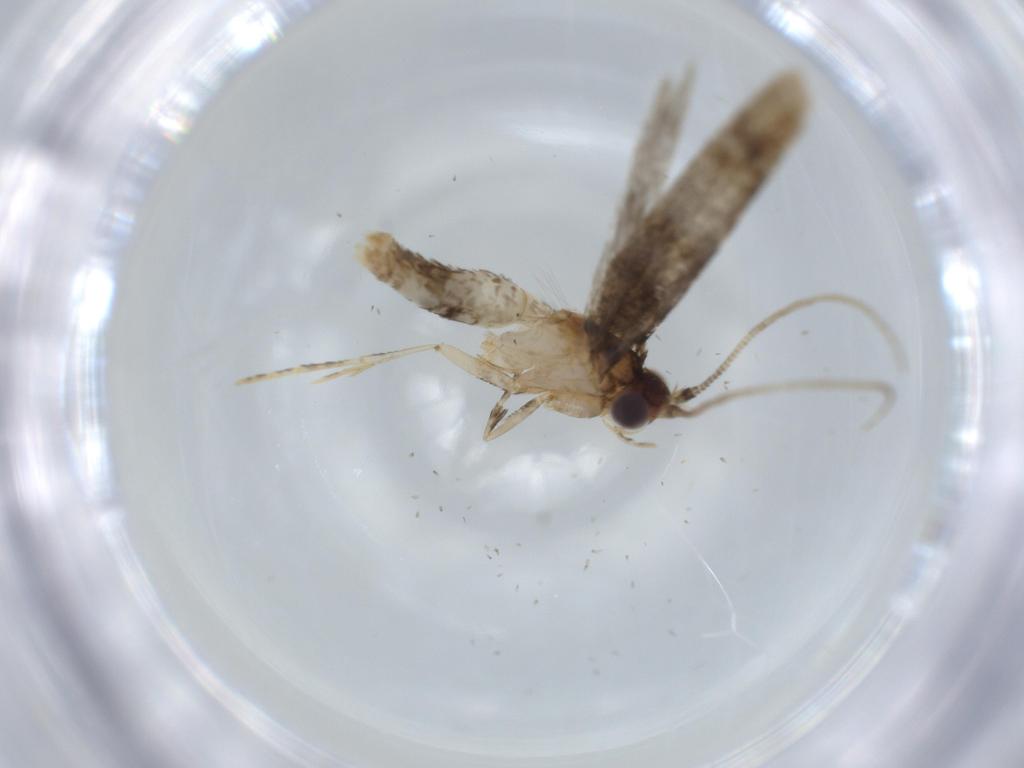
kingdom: Animalia
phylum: Arthropoda
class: Insecta
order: Lepidoptera
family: Tineidae
